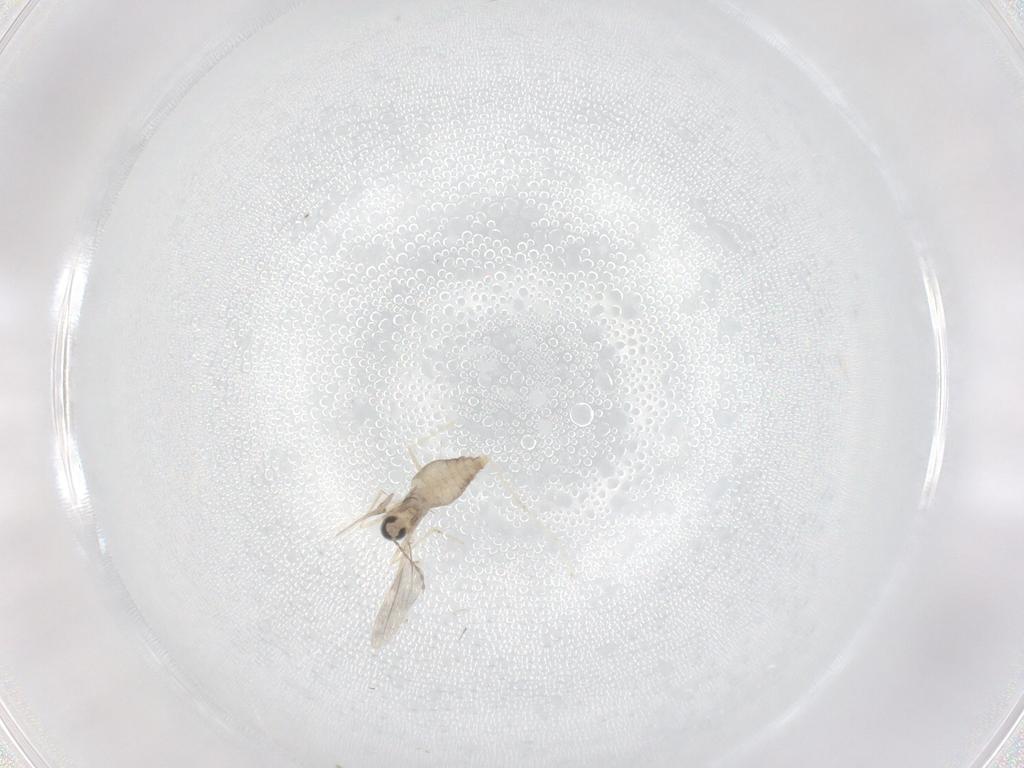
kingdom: Animalia
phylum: Arthropoda
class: Insecta
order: Diptera
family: Cecidomyiidae
